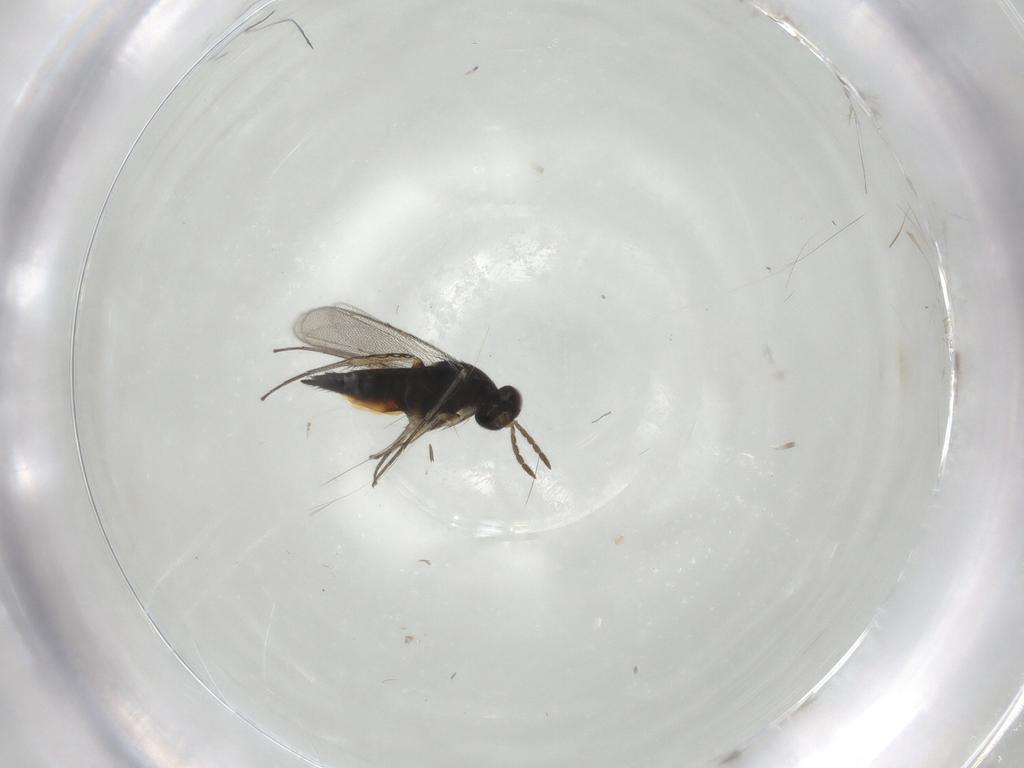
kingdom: Animalia
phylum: Arthropoda
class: Insecta
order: Hymenoptera
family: Eulophidae
